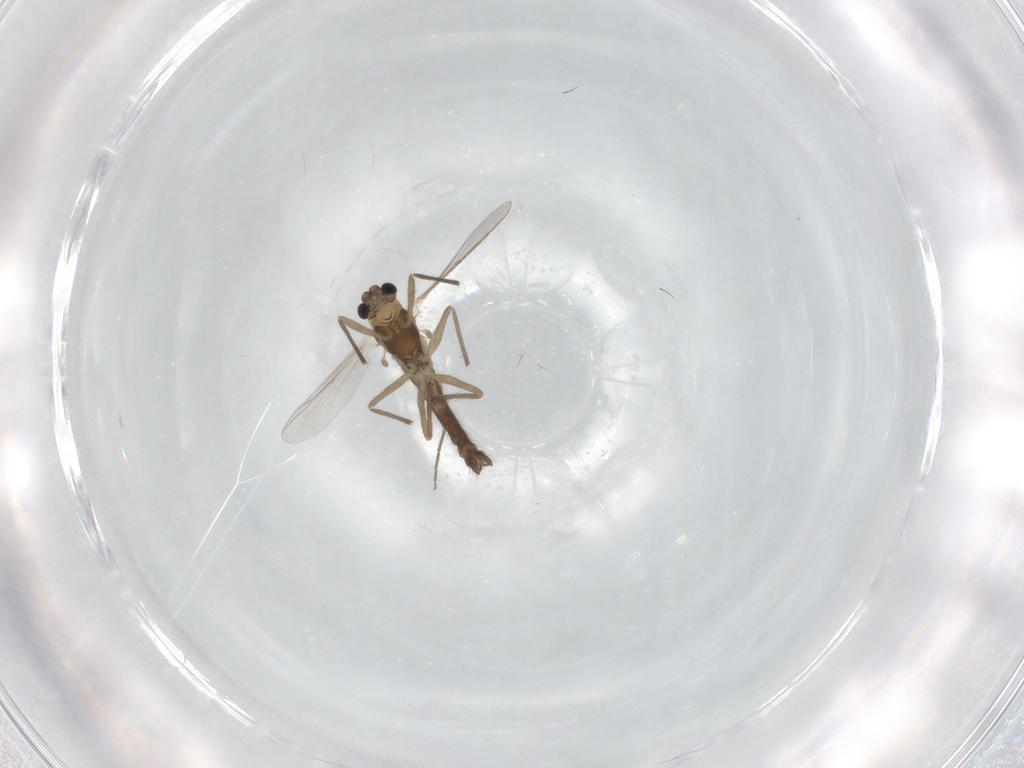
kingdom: Animalia
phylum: Arthropoda
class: Insecta
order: Diptera
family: Chironomidae
